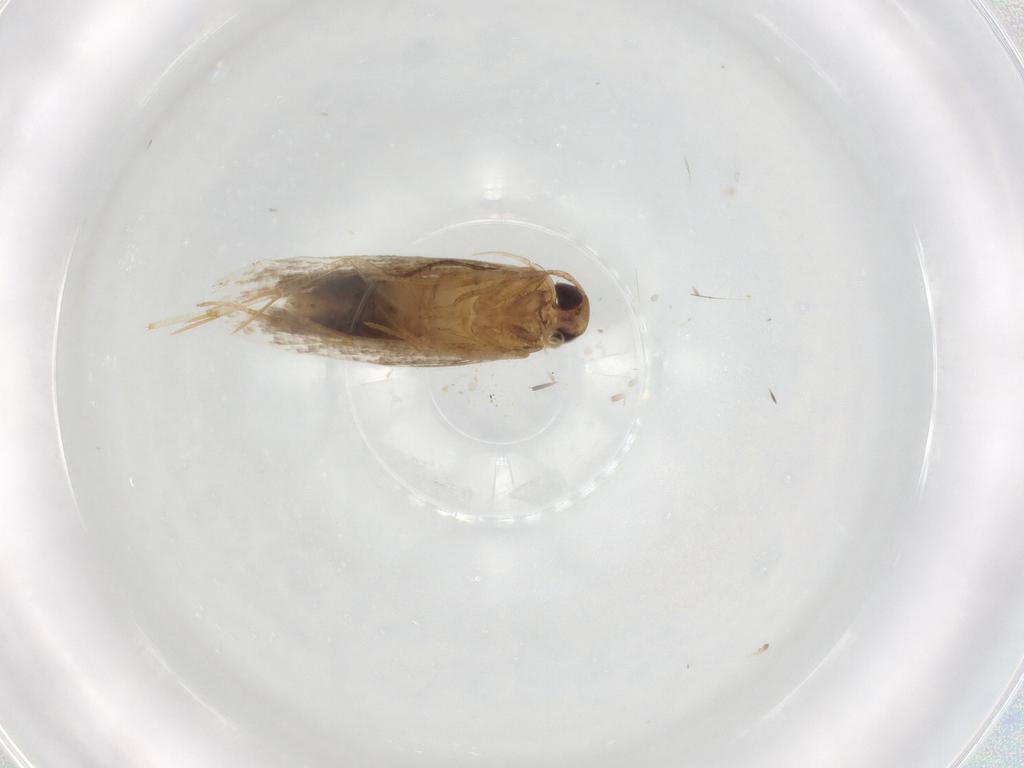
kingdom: Animalia
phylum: Arthropoda
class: Insecta
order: Lepidoptera
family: Gelechiidae
